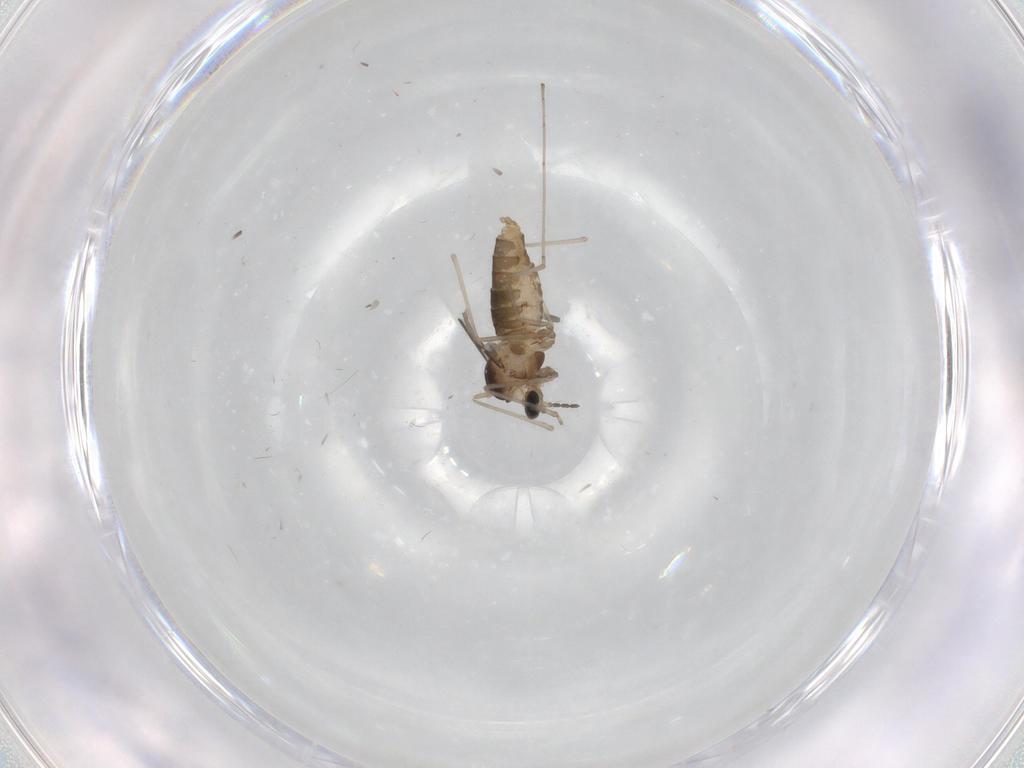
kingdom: Animalia
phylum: Arthropoda
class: Insecta
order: Diptera
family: Cecidomyiidae
